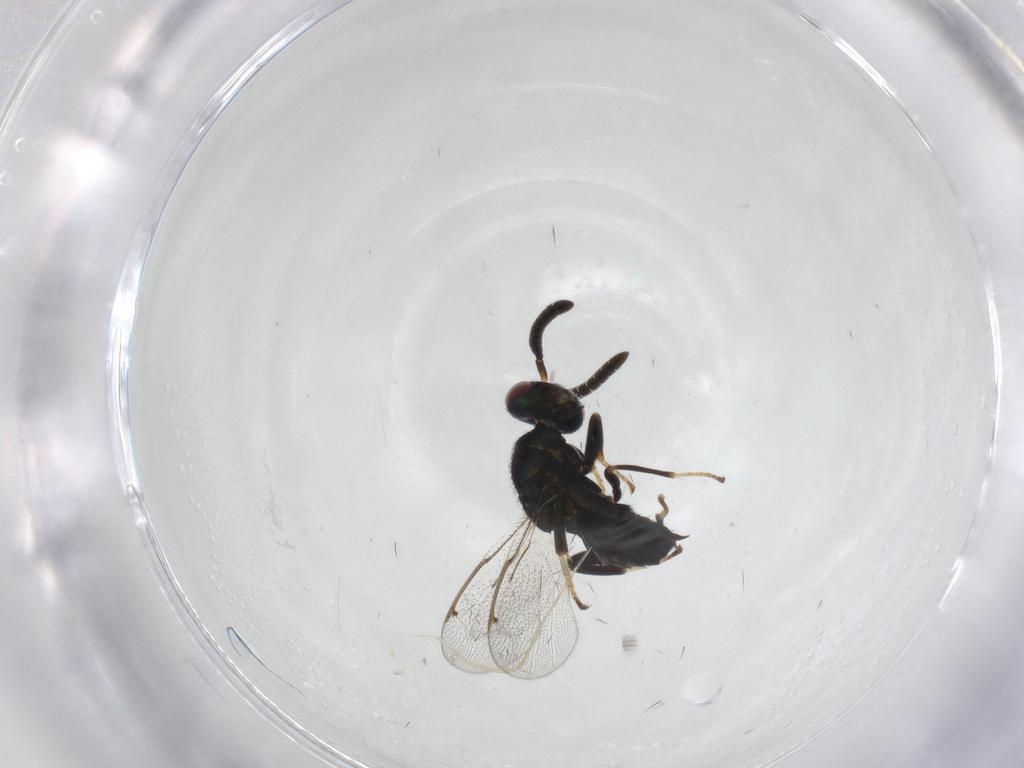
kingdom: Animalia
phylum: Arthropoda
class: Insecta
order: Hymenoptera
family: Torymidae
